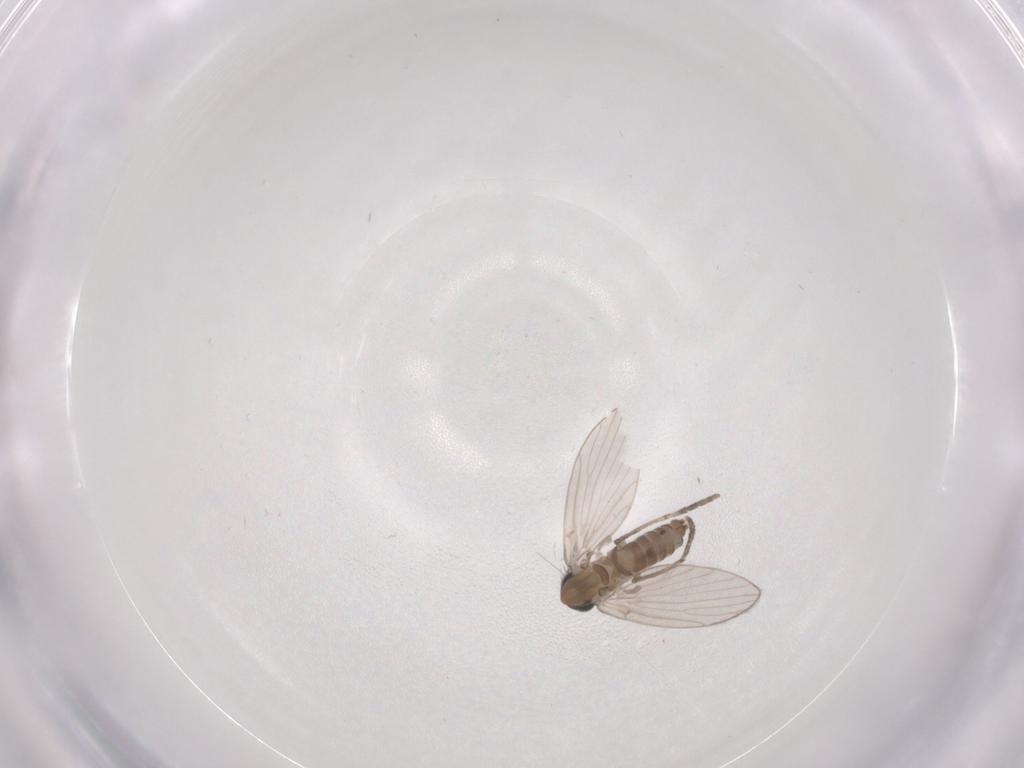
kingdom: Animalia
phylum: Arthropoda
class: Insecta
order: Diptera
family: Psychodidae
